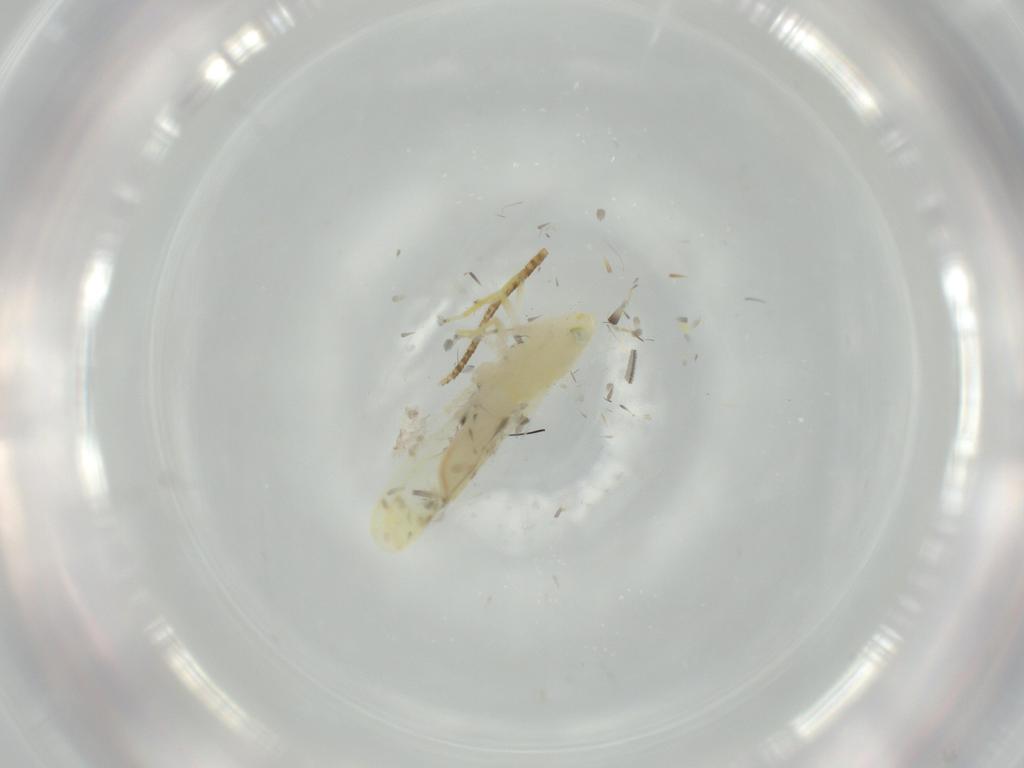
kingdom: Animalia
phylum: Arthropoda
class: Insecta
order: Hemiptera
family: Aleyrodidae
